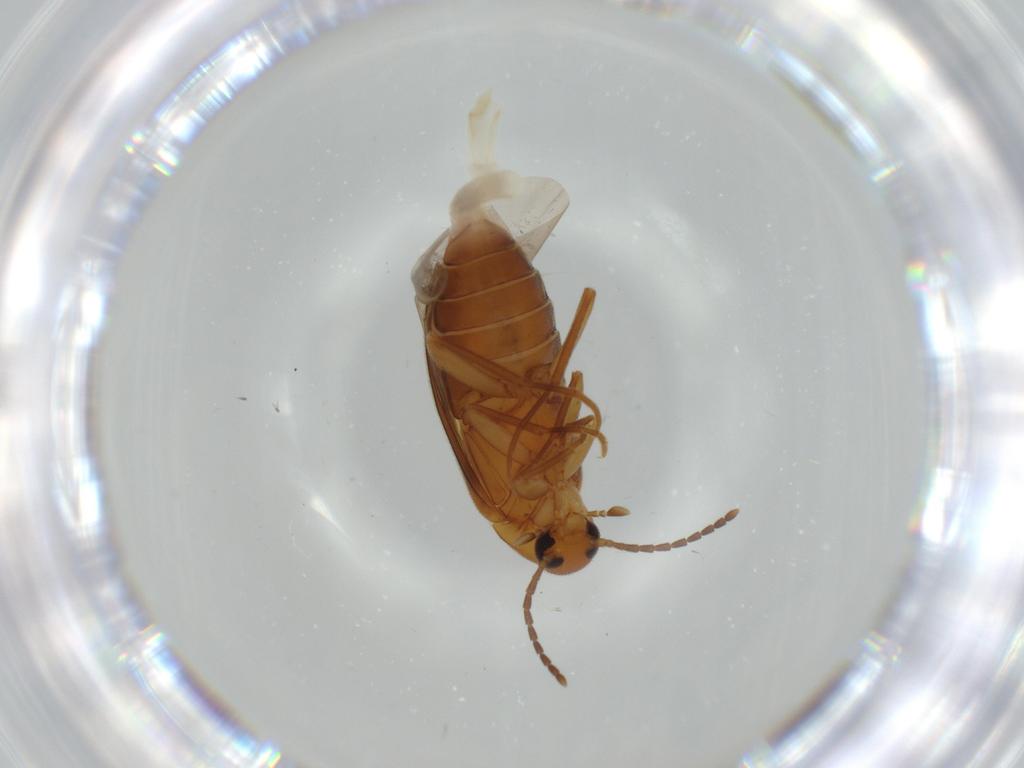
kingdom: Animalia
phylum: Arthropoda
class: Insecta
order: Coleoptera
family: Scraptiidae
